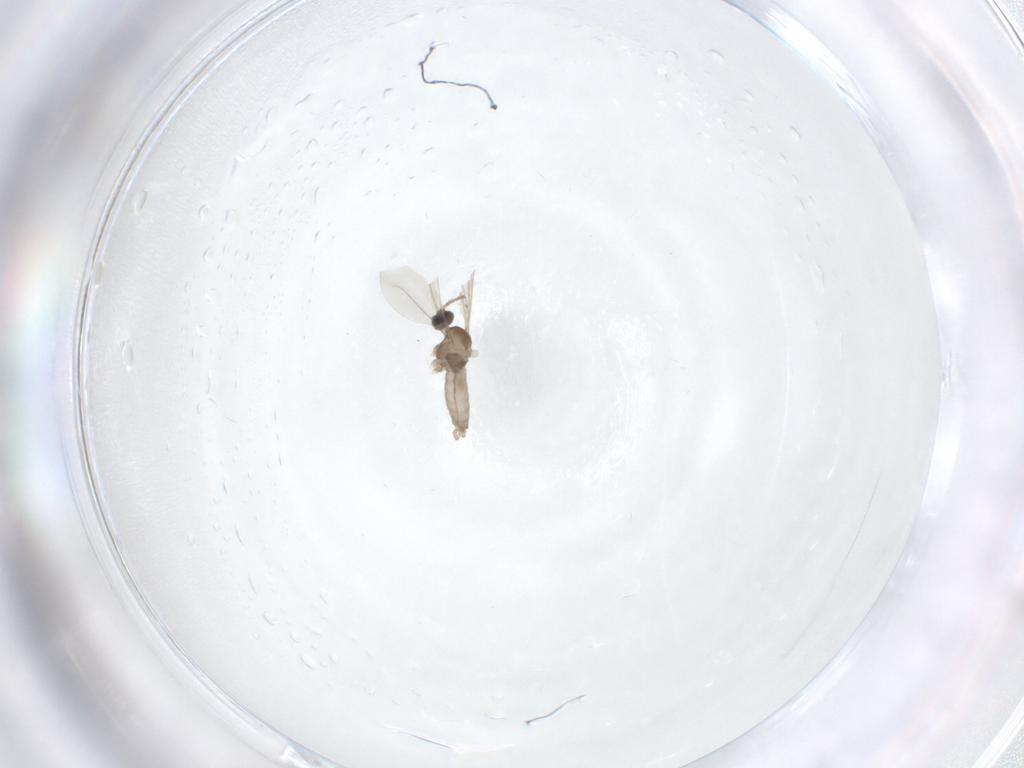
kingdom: Animalia
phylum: Arthropoda
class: Insecta
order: Diptera
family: Cecidomyiidae
